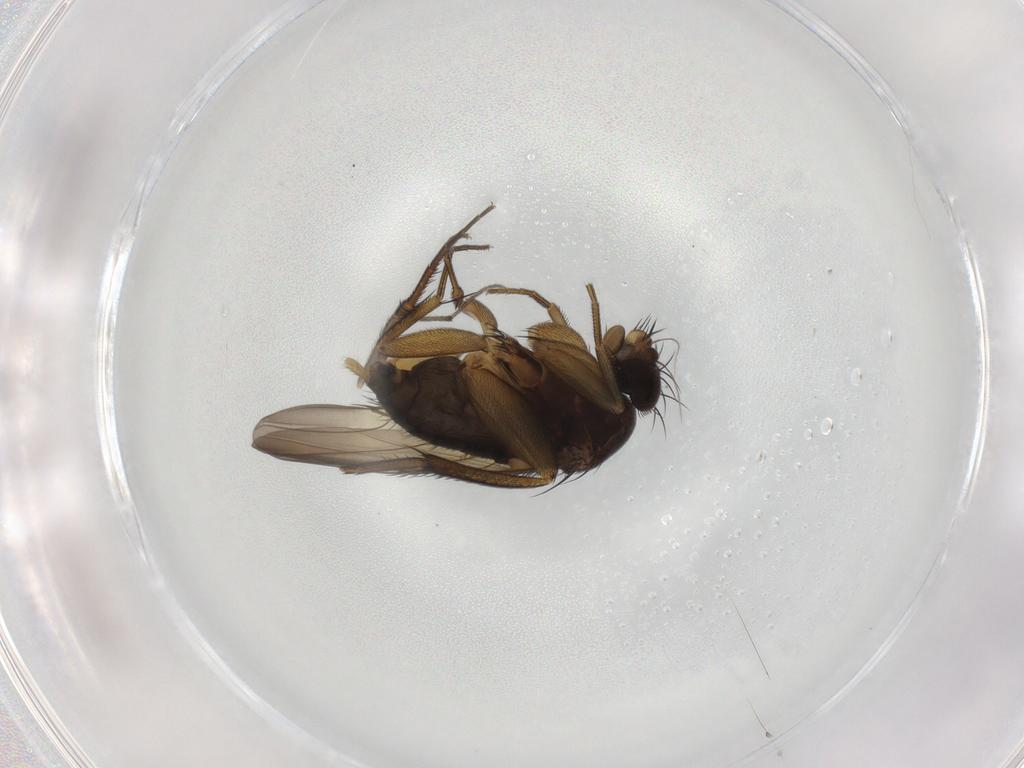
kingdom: Animalia
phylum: Arthropoda
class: Insecta
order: Diptera
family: Phoridae
